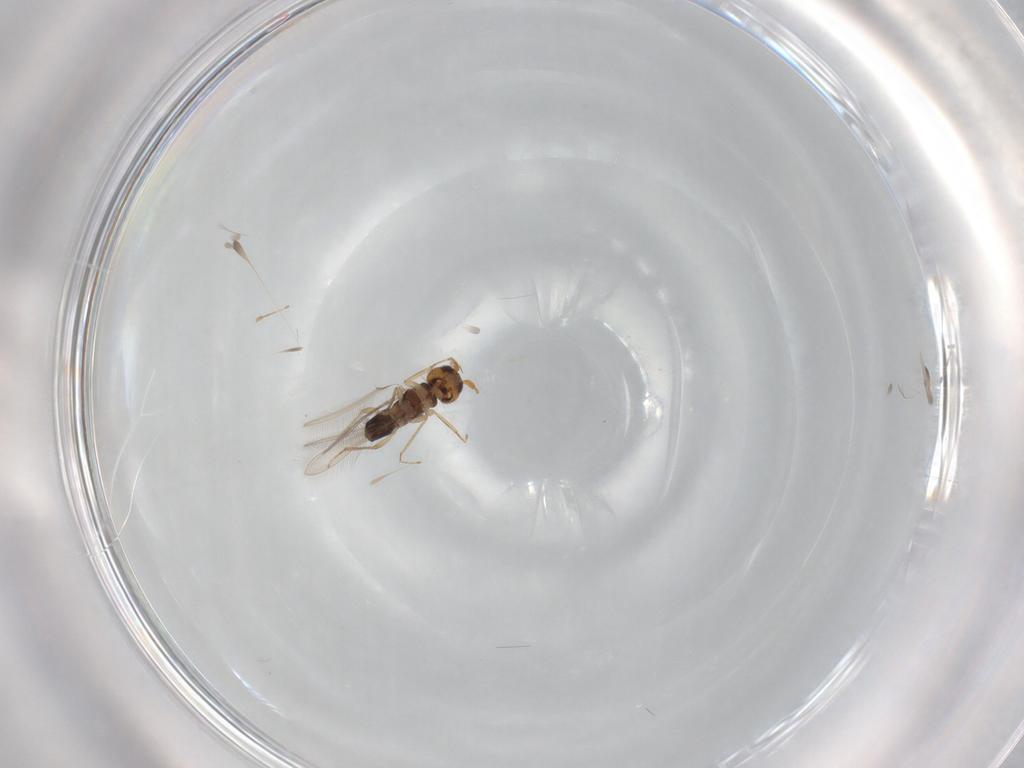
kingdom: Animalia
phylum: Arthropoda
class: Insecta
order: Hymenoptera
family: Mymaridae
